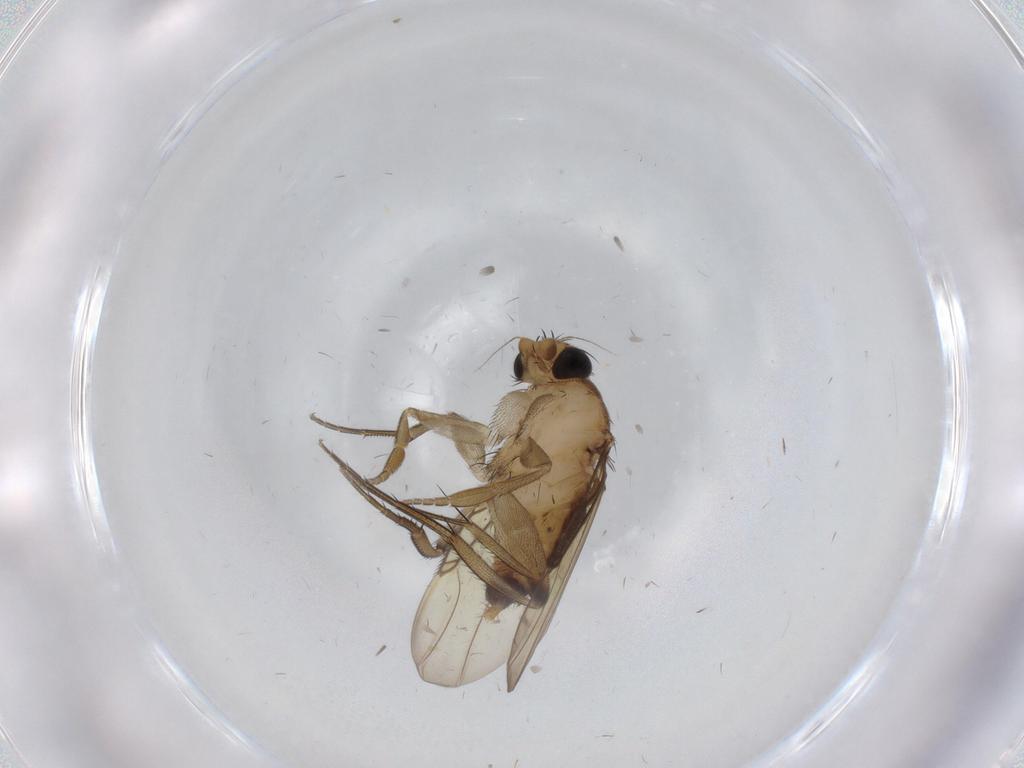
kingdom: Animalia
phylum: Arthropoda
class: Insecta
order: Diptera
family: Phoridae
